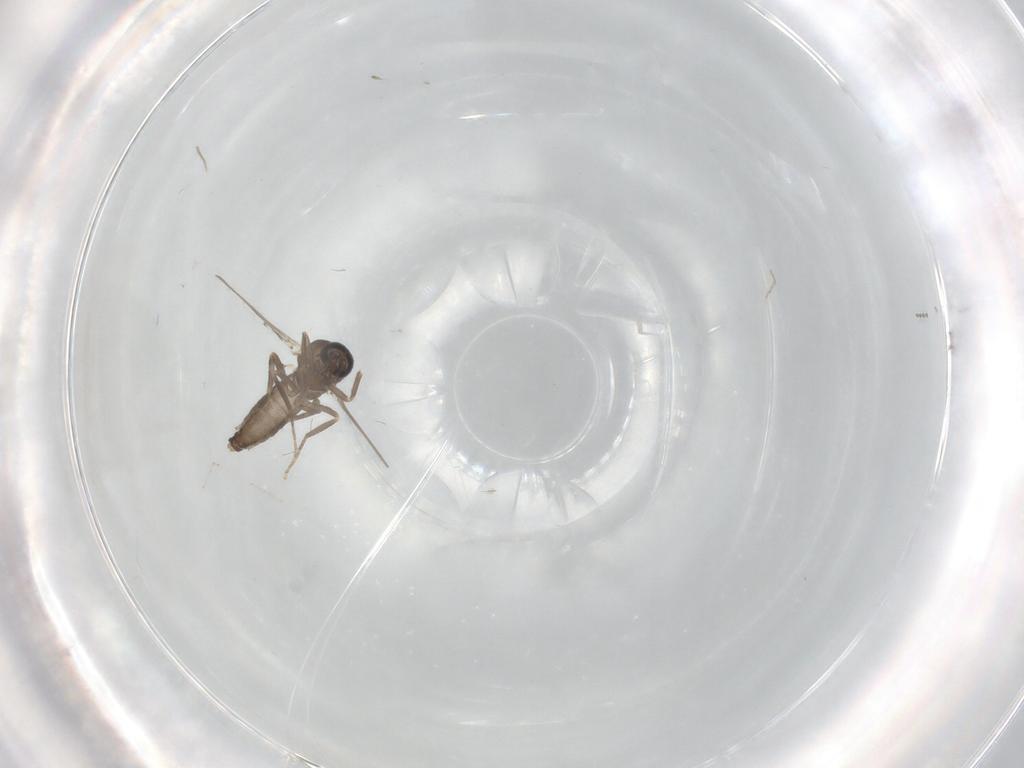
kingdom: Animalia
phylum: Arthropoda
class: Insecta
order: Diptera
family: Ceratopogonidae
